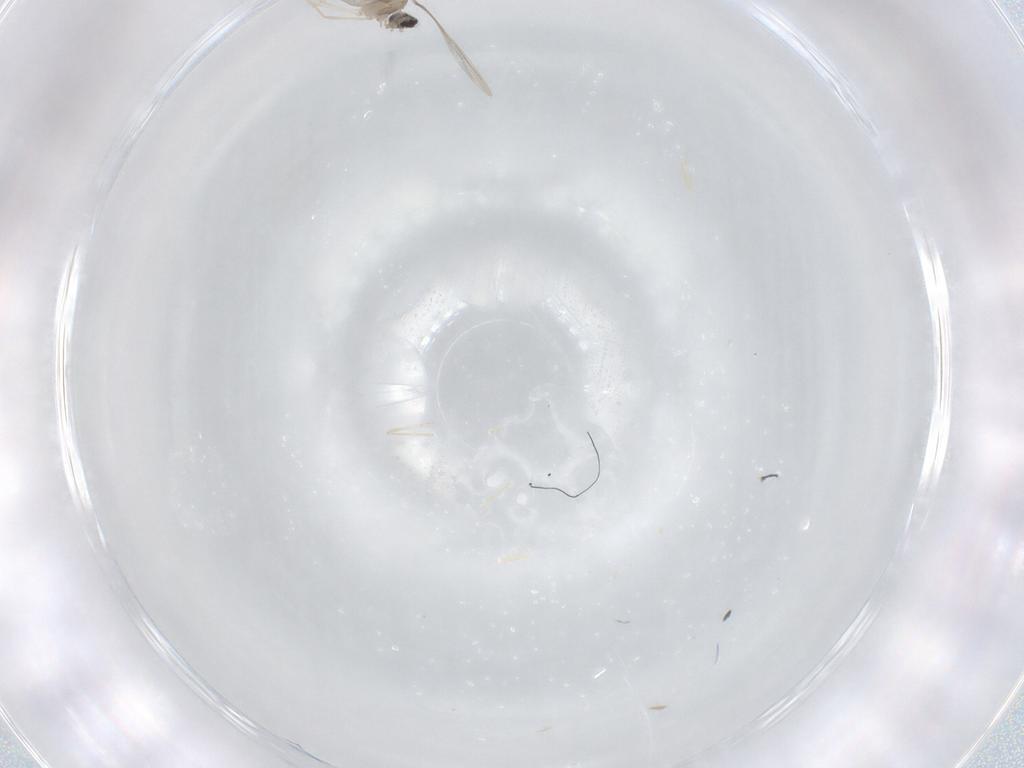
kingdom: Animalia
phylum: Arthropoda
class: Insecta
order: Diptera
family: Cecidomyiidae
